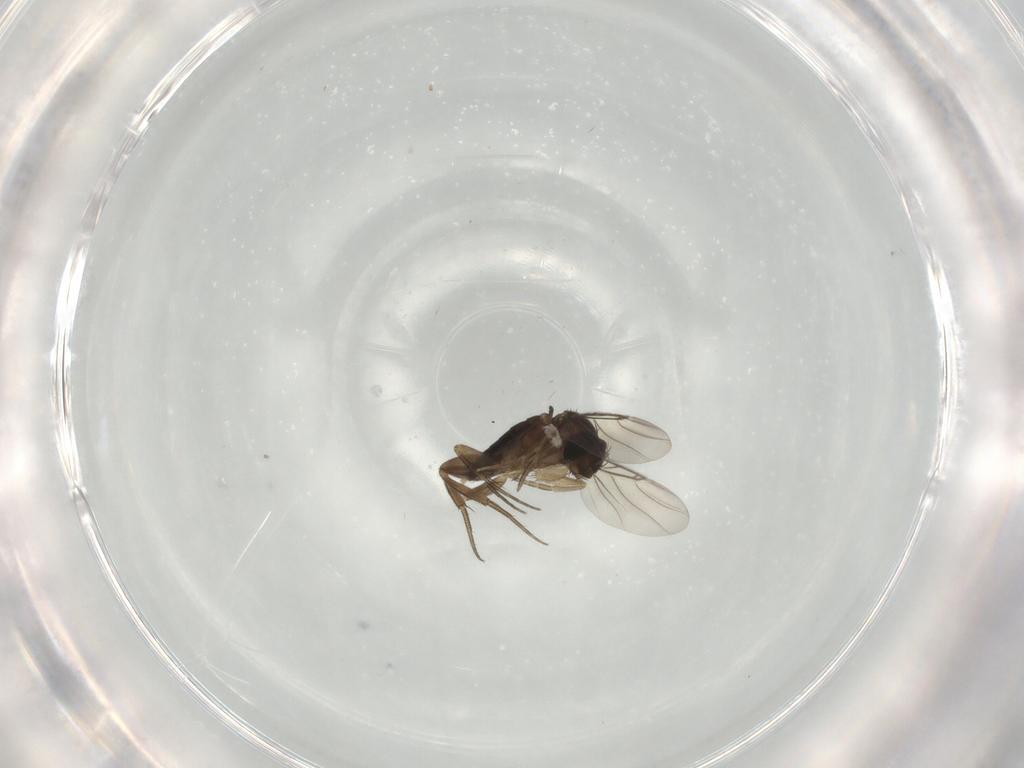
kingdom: Animalia
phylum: Arthropoda
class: Insecta
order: Diptera
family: Phoridae
